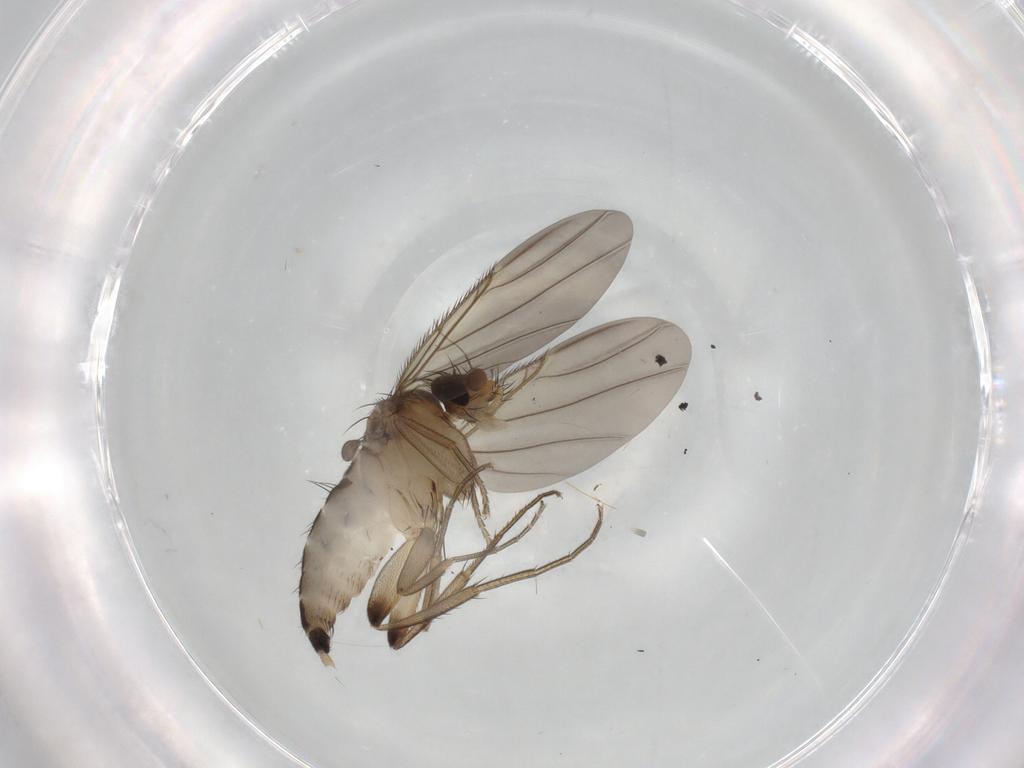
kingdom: Animalia
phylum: Arthropoda
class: Insecta
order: Diptera
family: Phoridae
